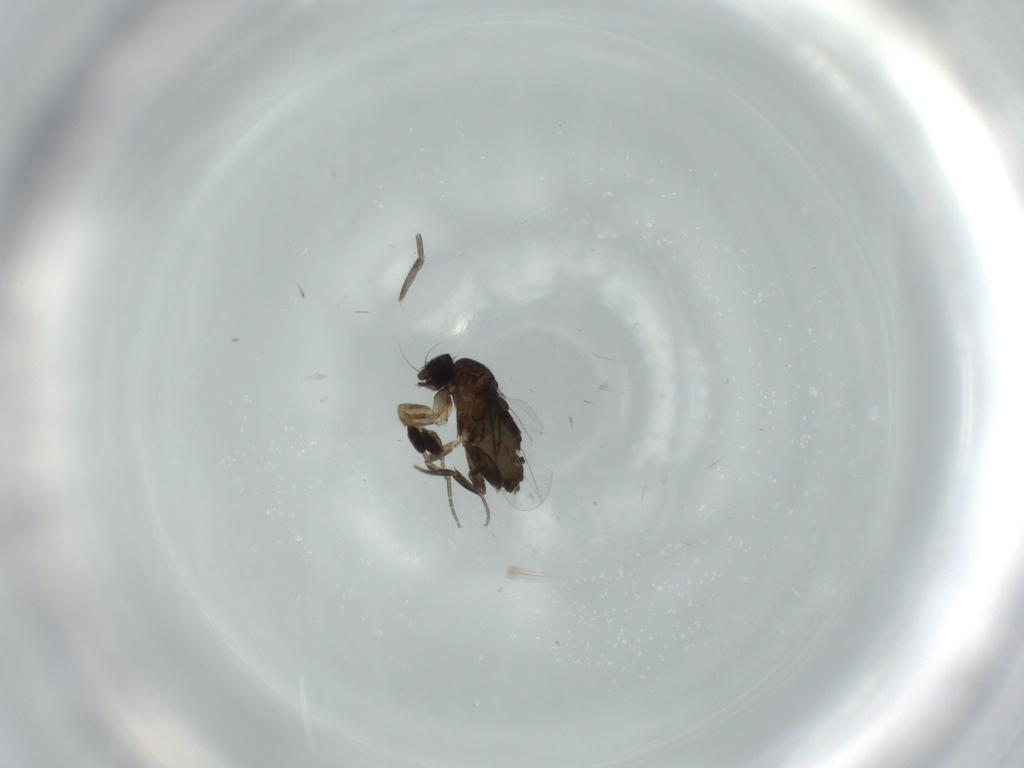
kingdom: Animalia
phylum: Arthropoda
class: Insecta
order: Diptera
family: Phoridae
